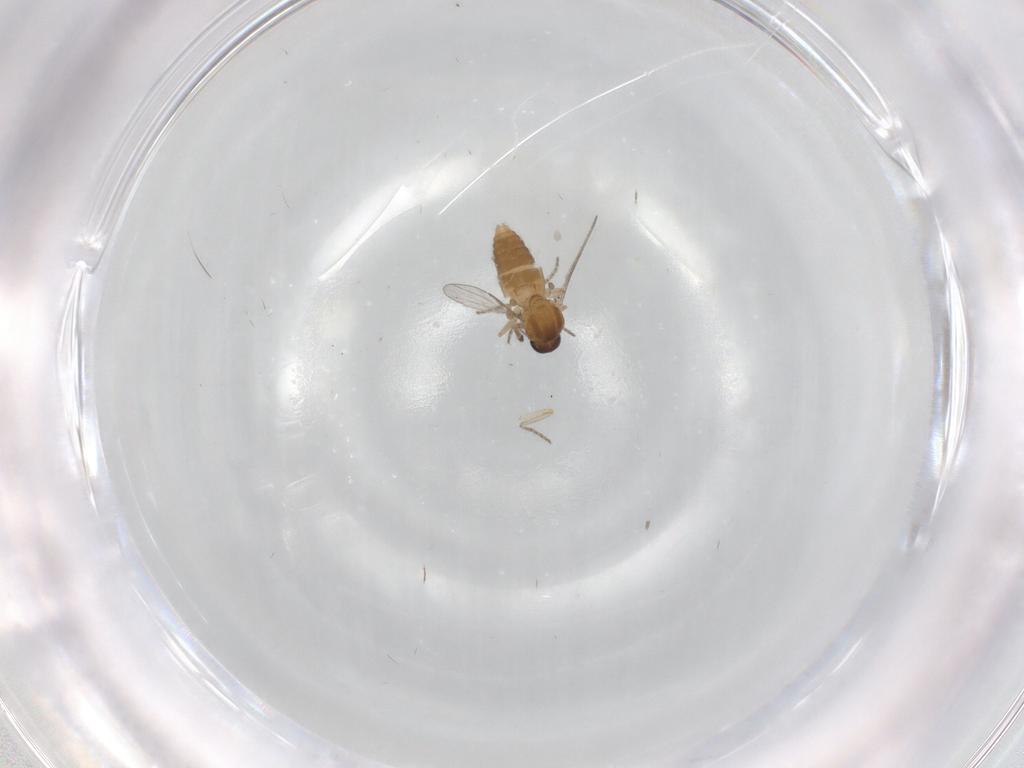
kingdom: Animalia
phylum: Arthropoda
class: Insecta
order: Diptera
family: Ceratopogonidae
